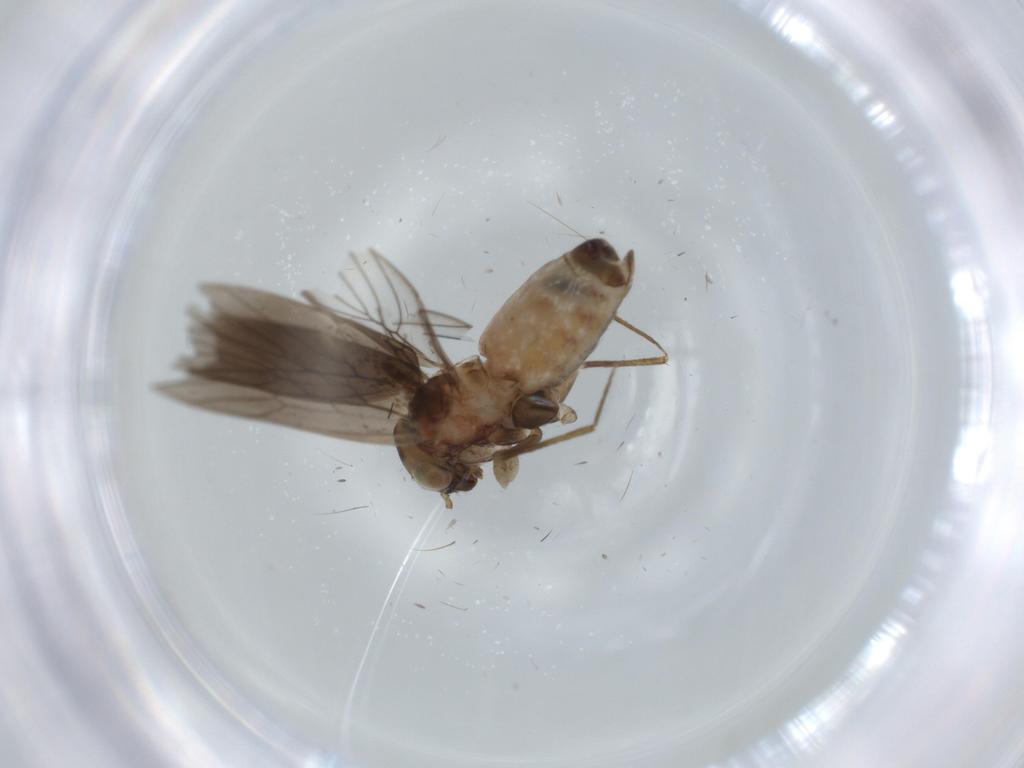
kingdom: Animalia
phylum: Arthropoda
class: Insecta
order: Psocodea
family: Lepidopsocidae
